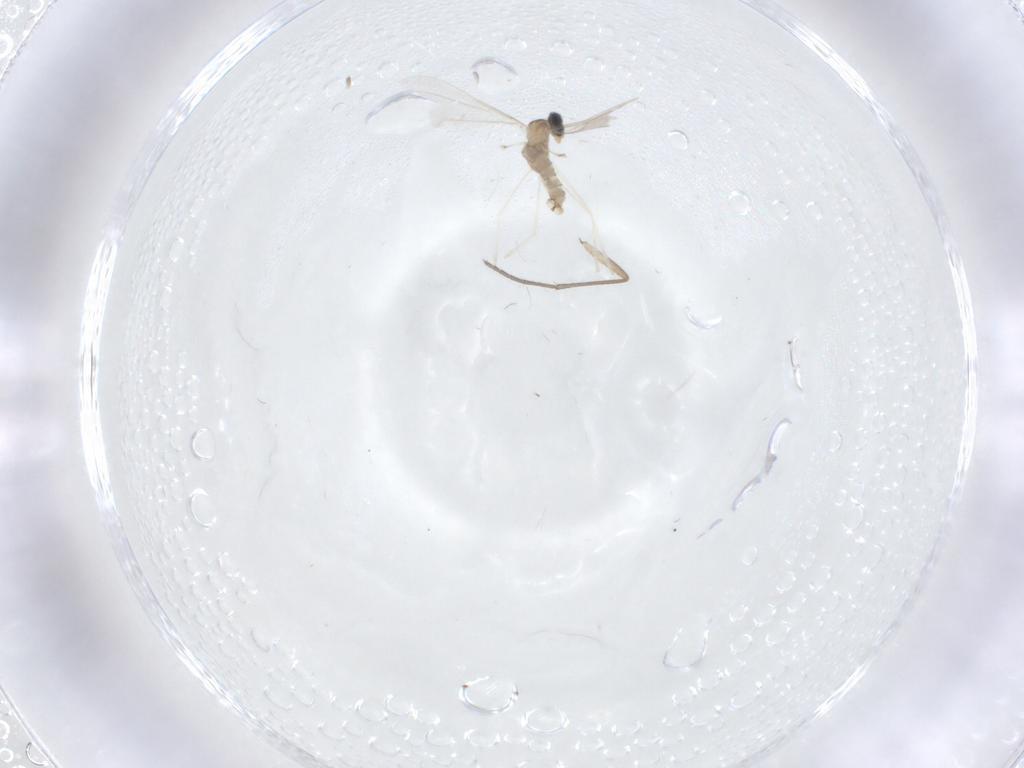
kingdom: Animalia
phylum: Arthropoda
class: Insecta
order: Diptera
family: Cecidomyiidae
